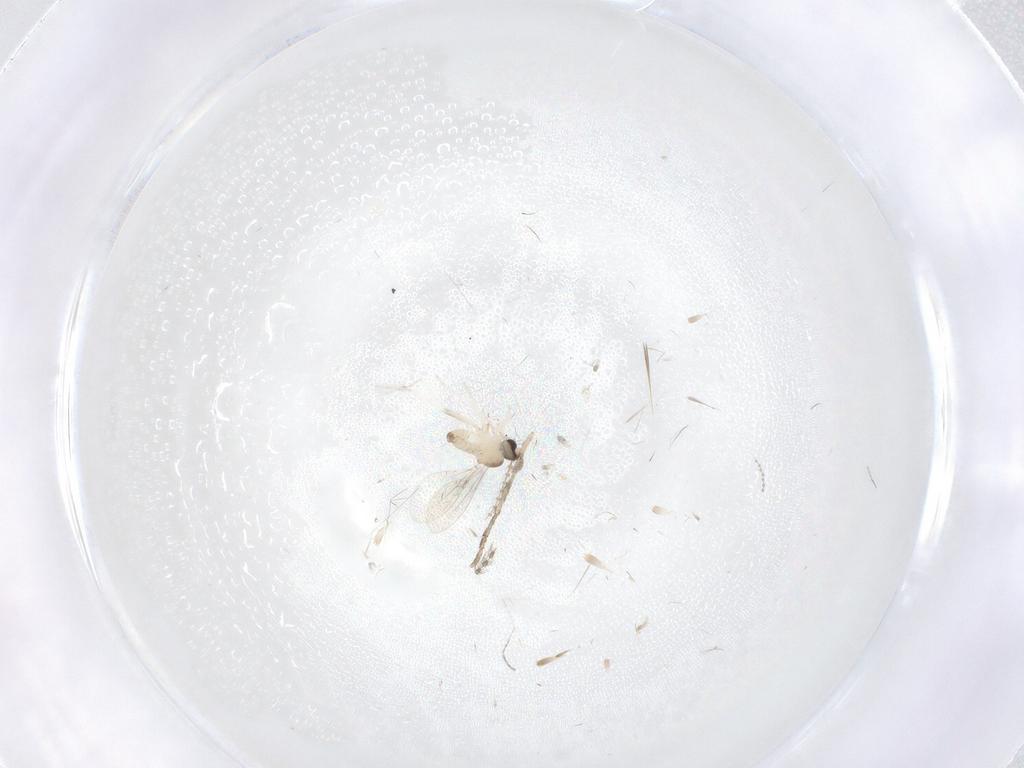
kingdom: Animalia
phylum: Arthropoda
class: Insecta
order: Diptera
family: Cecidomyiidae
